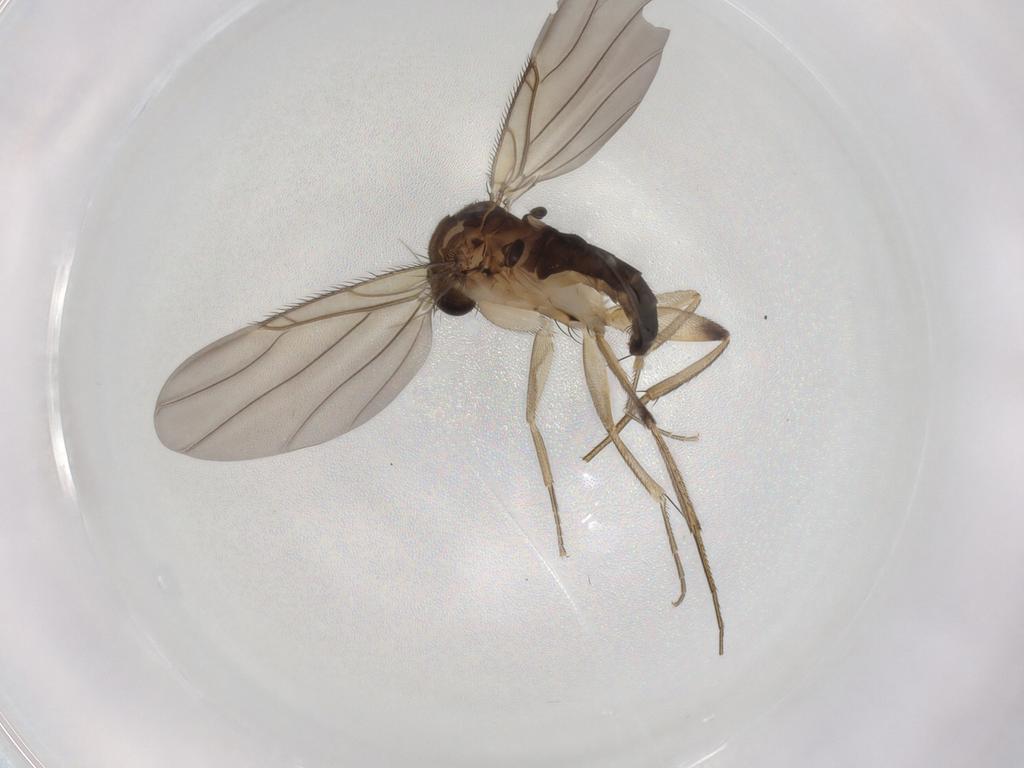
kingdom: Animalia
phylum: Arthropoda
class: Insecta
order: Diptera
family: Phoridae
